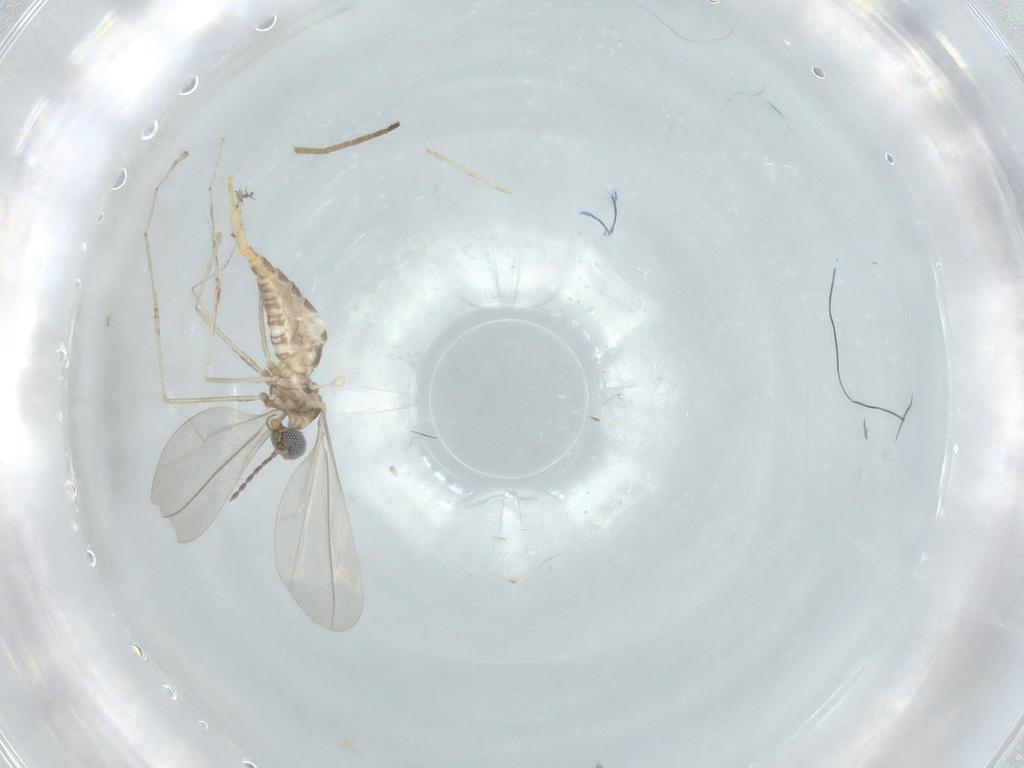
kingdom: Animalia
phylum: Arthropoda
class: Insecta
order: Diptera
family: Cecidomyiidae
